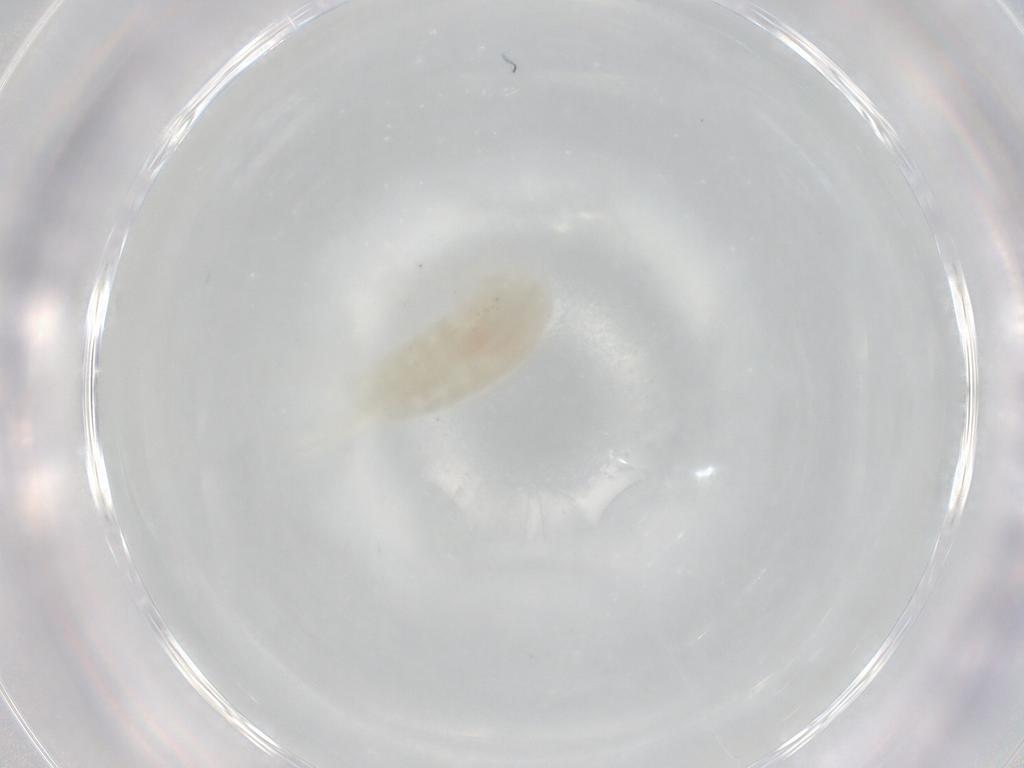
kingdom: Animalia
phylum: Arthropoda
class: Copepoda
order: Calanoida
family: Diaptomidae
